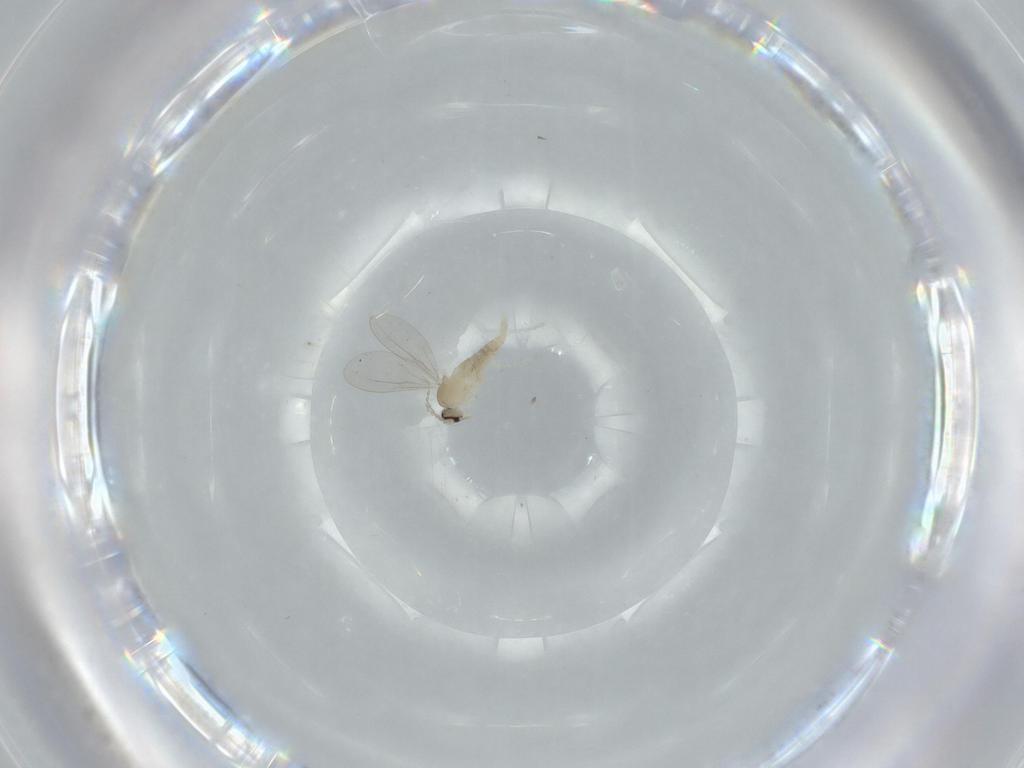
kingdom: Animalia
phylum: Arthropoda
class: Insecta
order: Diptera
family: Cecidomyiidae
